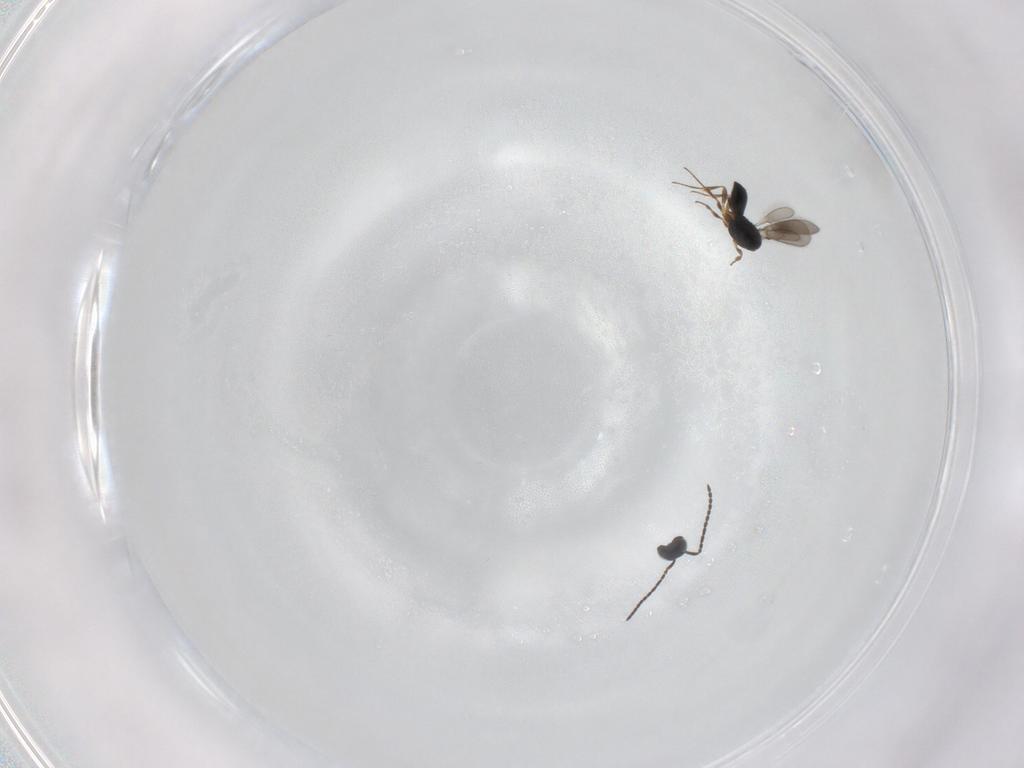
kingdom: Animalia
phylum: Arthropoda
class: Insecta
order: Hymenoptera
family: Scelionidae
